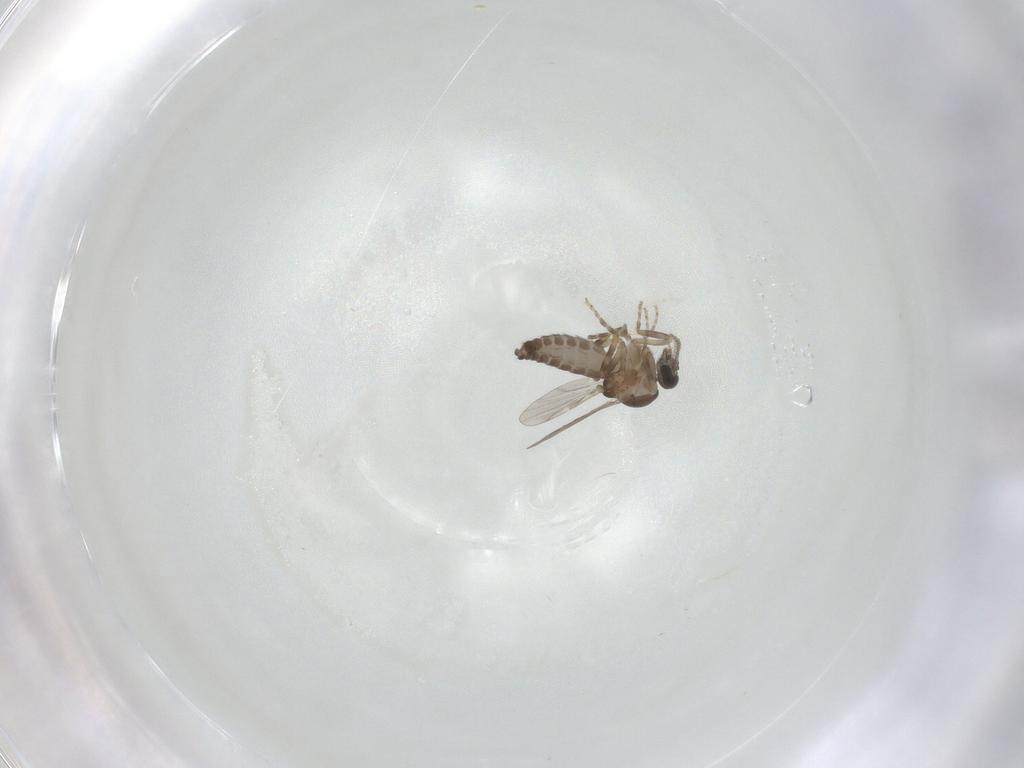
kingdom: Animalia
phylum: Arthropoda
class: Insecta
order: Diptera
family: Ceratopogonidae
